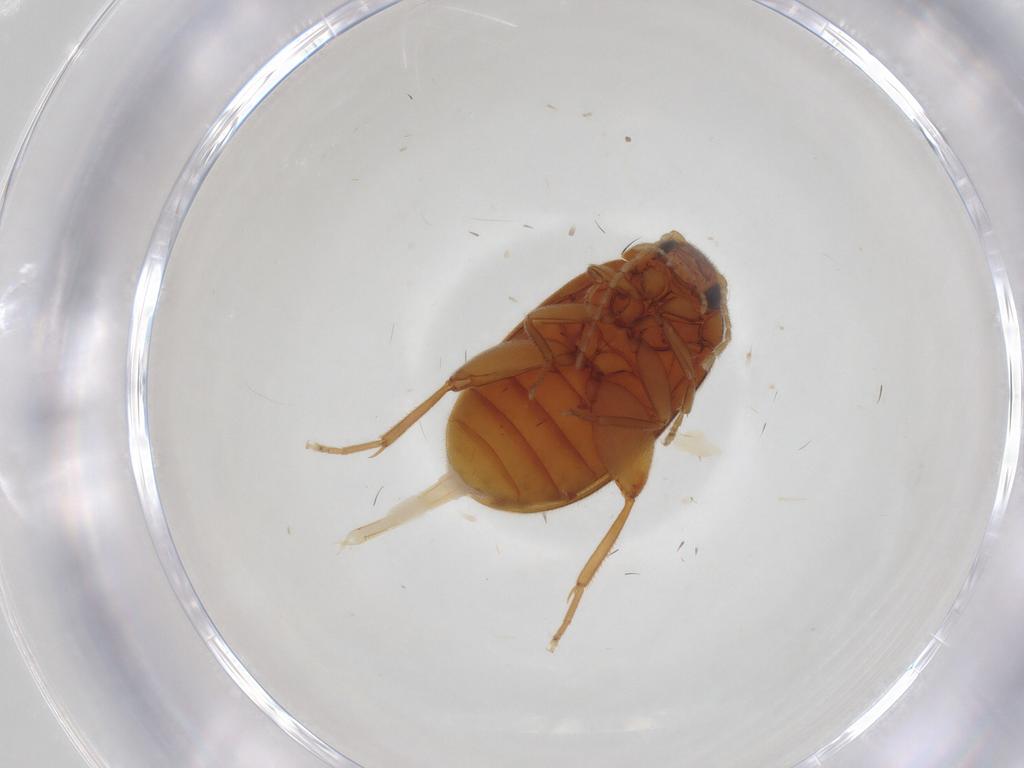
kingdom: Animalia
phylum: Arthropoda
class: Insecta
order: Coleoptera
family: Scirtidae
